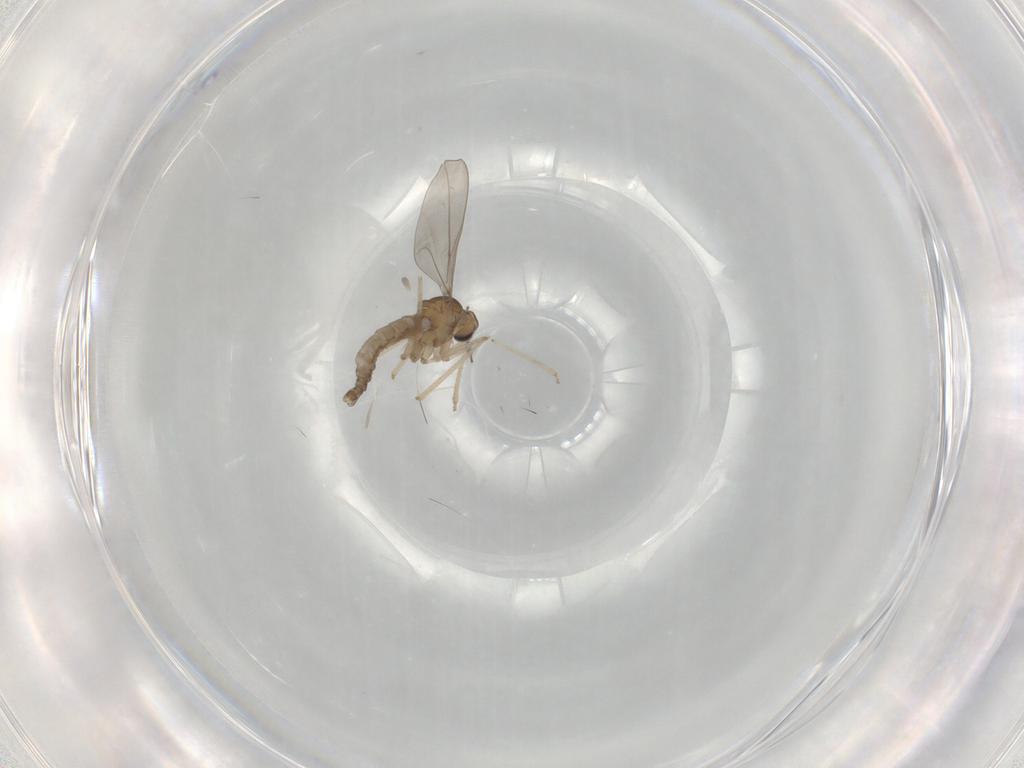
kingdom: Animalia
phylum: Arthropoda
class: Insecta
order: Diptera
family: Cecidomyiidae
